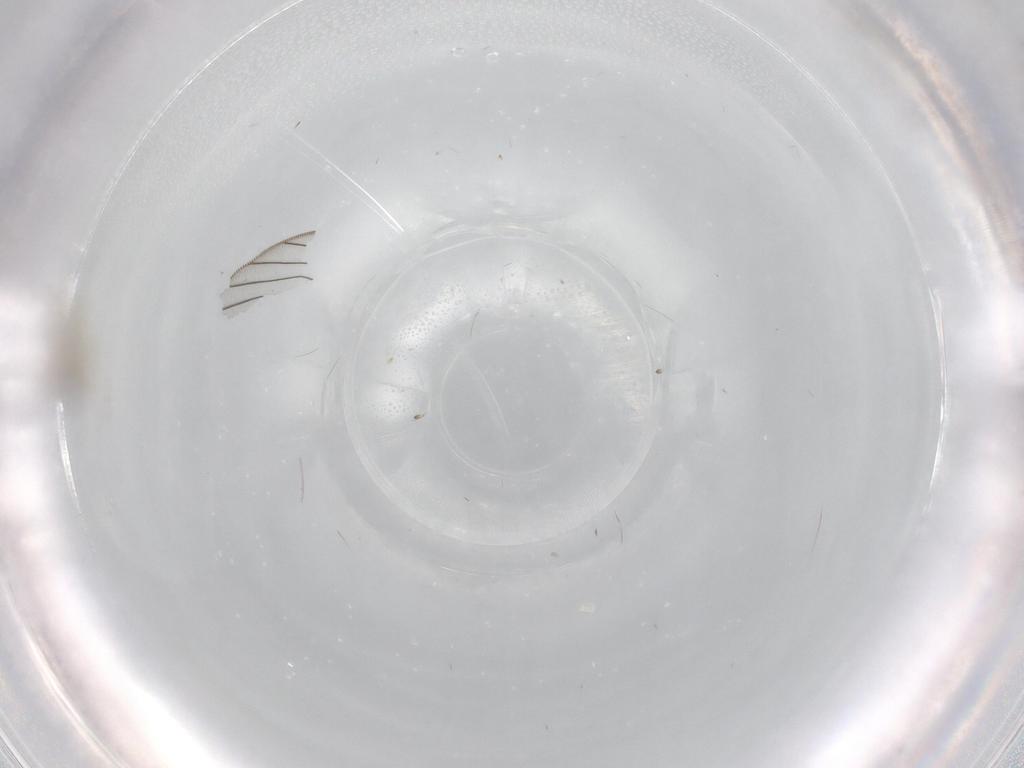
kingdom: Animalia
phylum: Arthropoda
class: Insecta
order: Diptera
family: Cecidomyiidae
